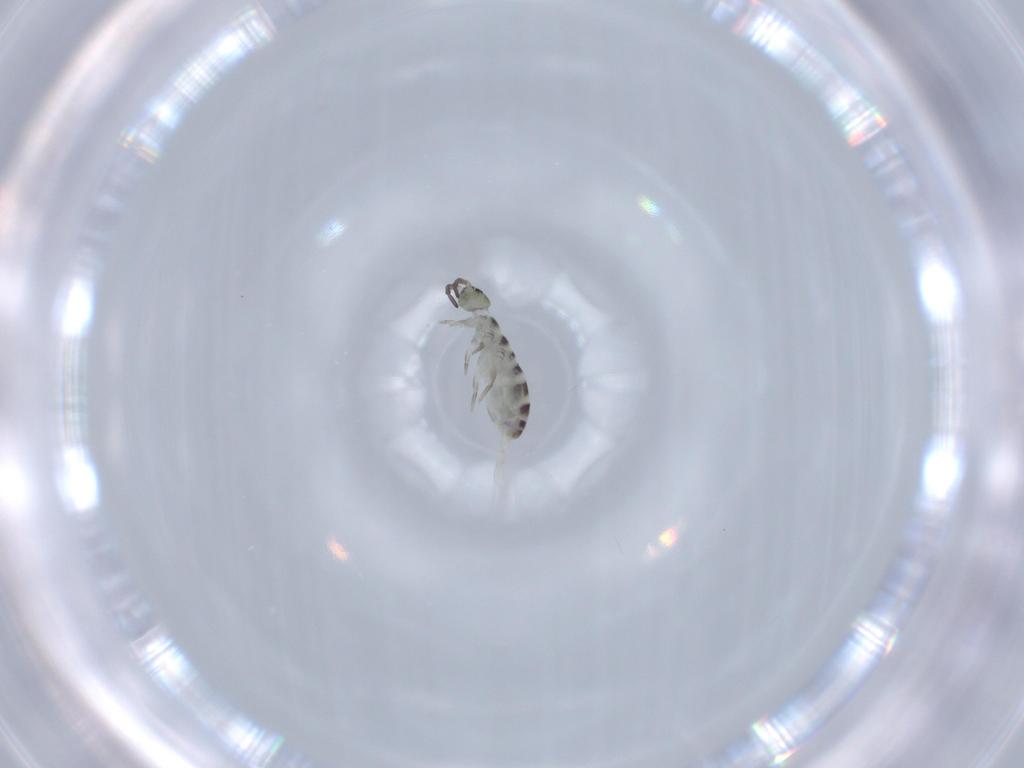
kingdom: Animalia
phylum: Arthropoda
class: Collembola
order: Entomobryomorpha
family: Isotomidae
